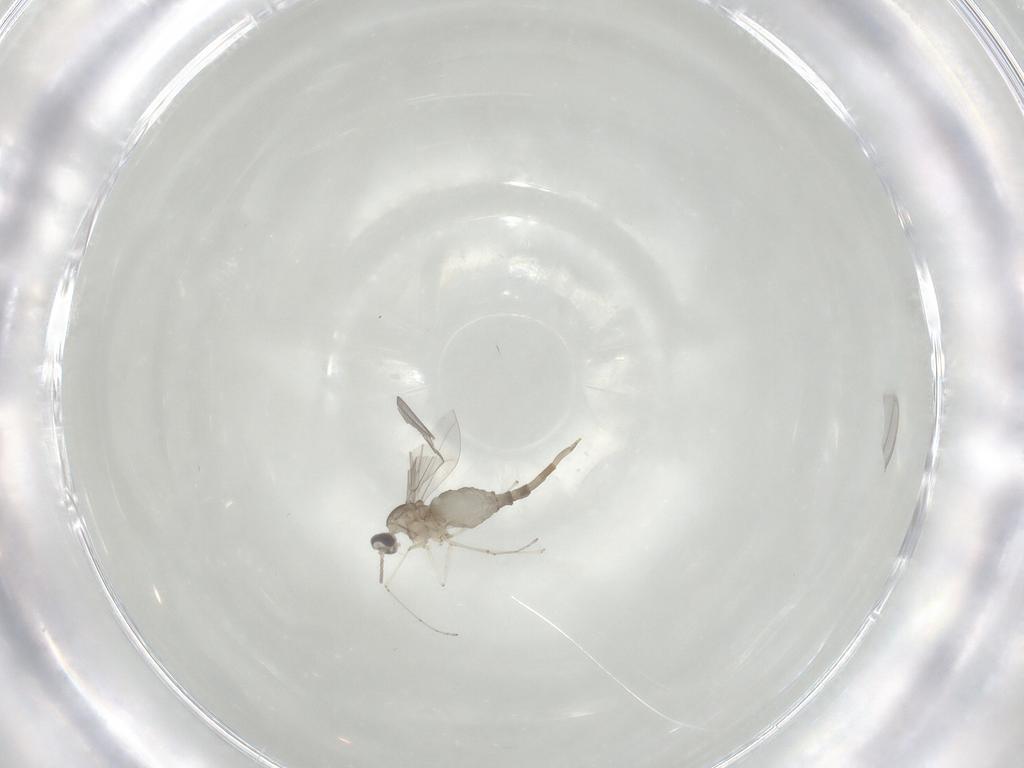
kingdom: Animalia
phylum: Arthropoda
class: Insecta
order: Diptera
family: Cecidomyiidae
